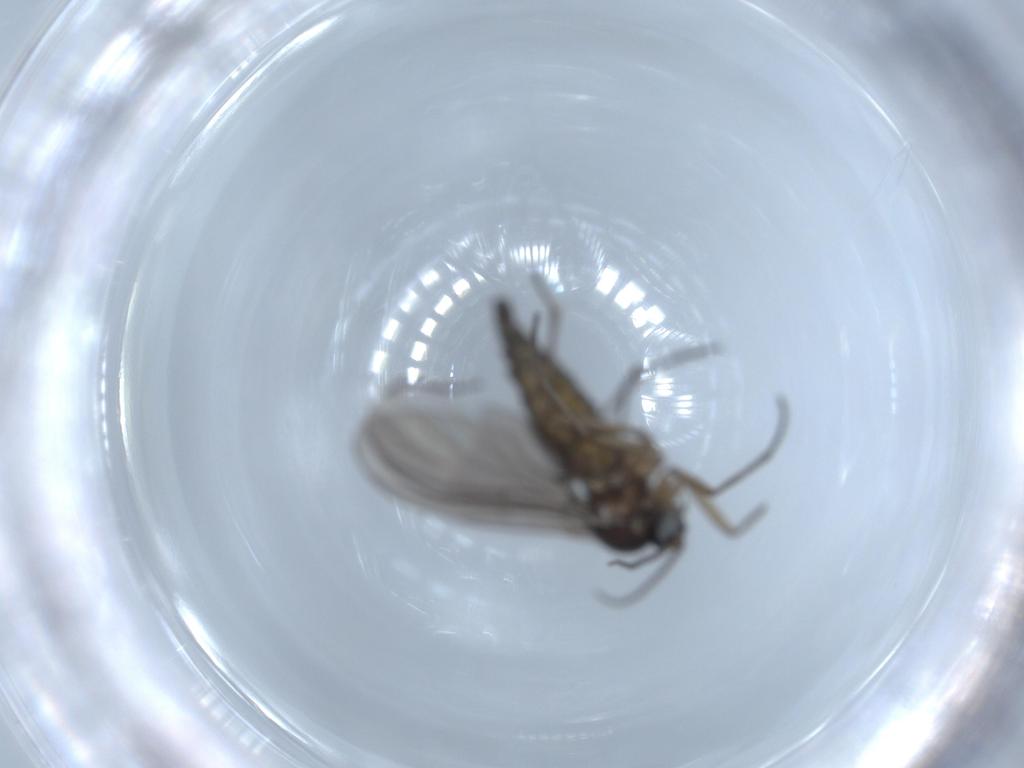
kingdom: Animalia
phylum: Arthropoda
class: Insecta
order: Diptera
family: Sciaridae
